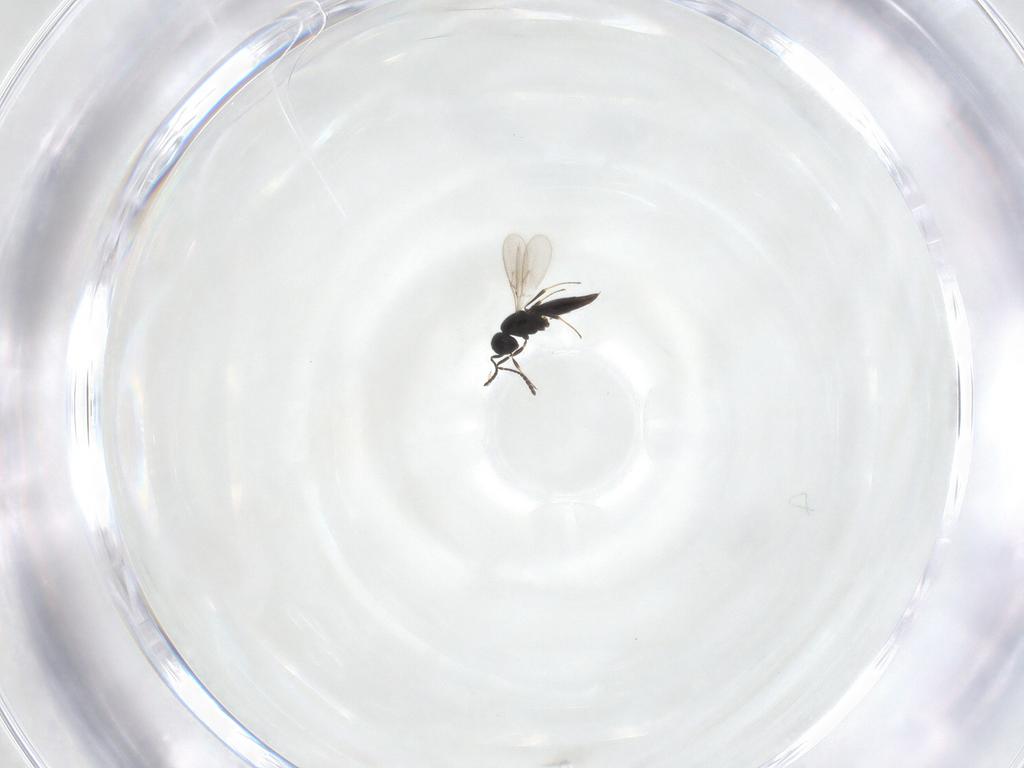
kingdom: Animalia
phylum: Arthropoda
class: Insecta
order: Hymenoptera
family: Scelionidae
